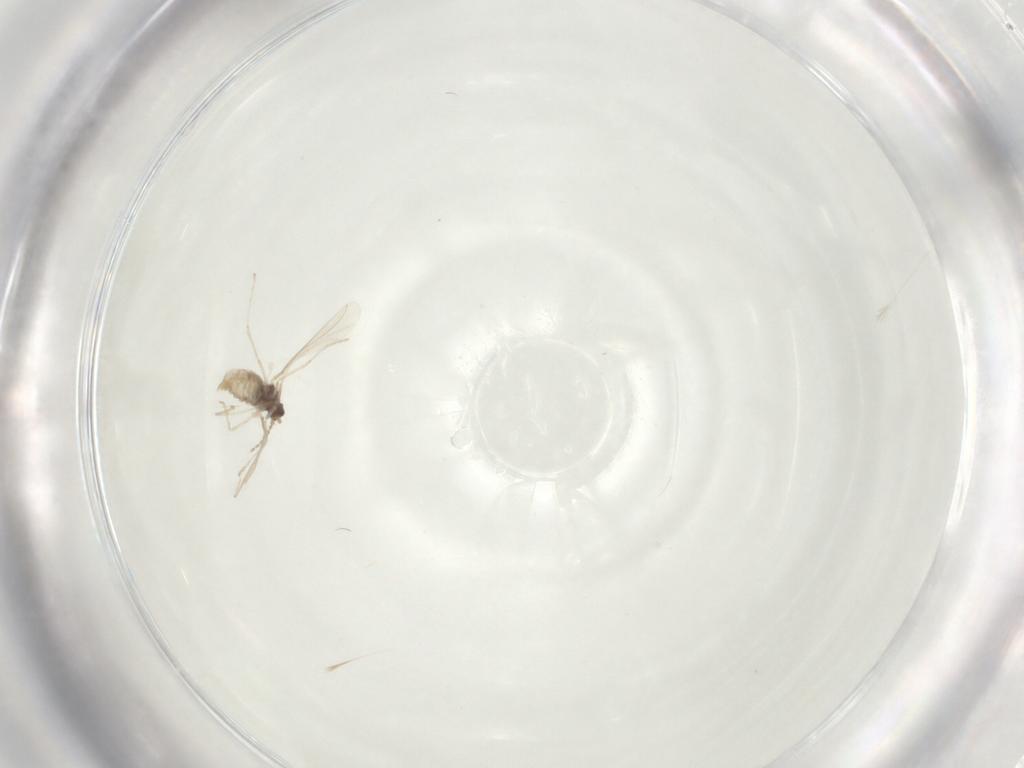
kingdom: Animalia
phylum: Arthropoda
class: Insecta
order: Diptera
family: Cecidomyiidae
